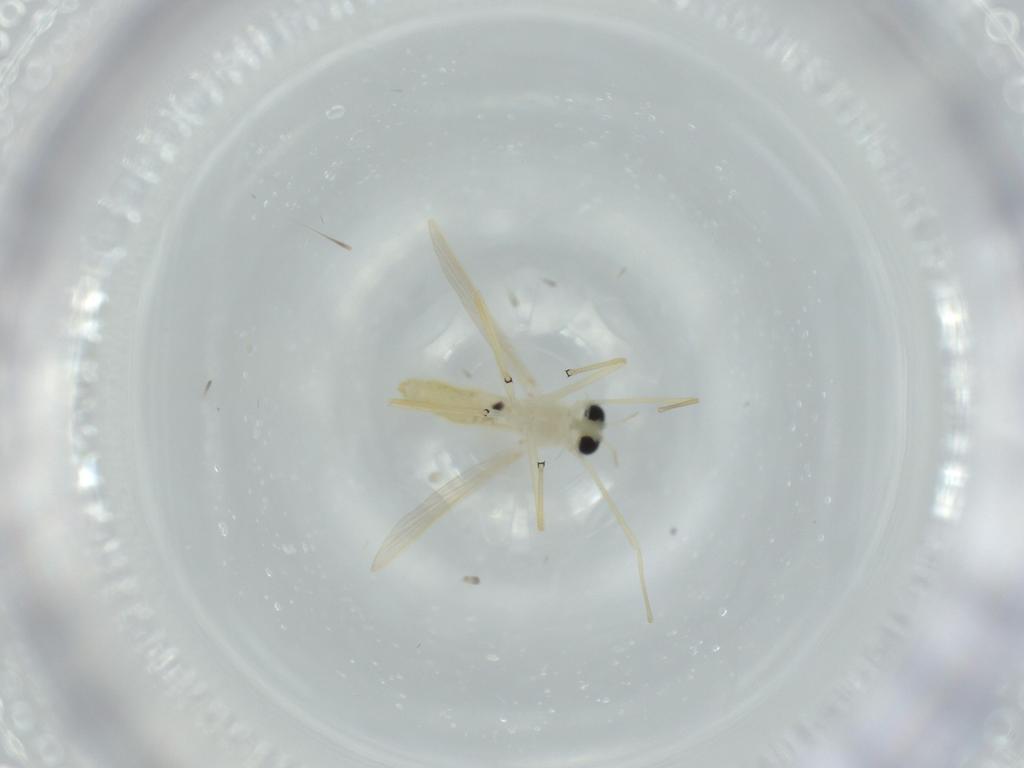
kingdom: Animalia
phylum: Arthropoda
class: Insecta
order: Diptera
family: Chironomidae
